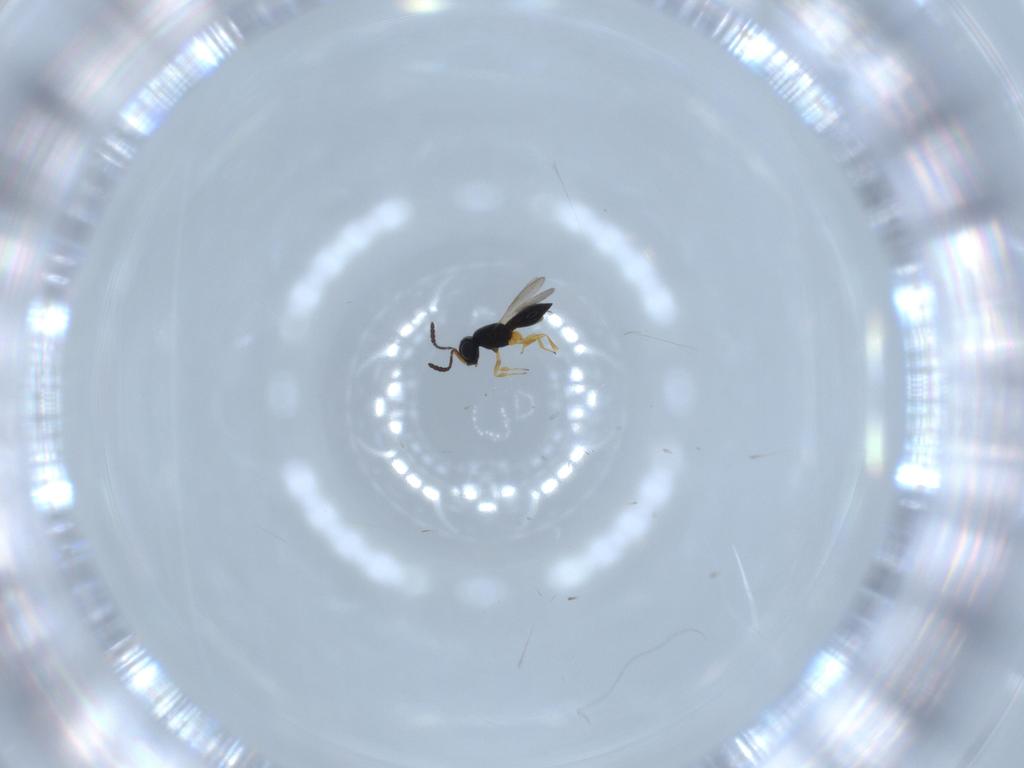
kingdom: Animalia
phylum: Arthropoda
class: Insecta
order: Hymenoptera
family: Scelionidae
